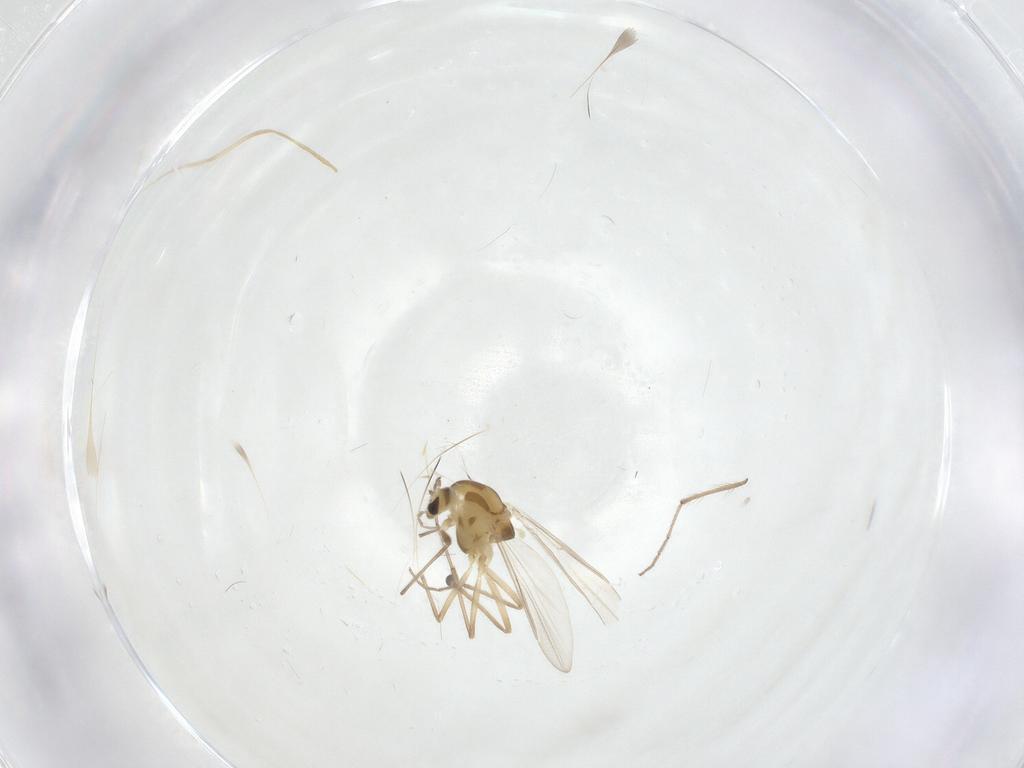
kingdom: Animalia
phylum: Arthropoda
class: Insecta
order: Diptera
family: Chironomidae
